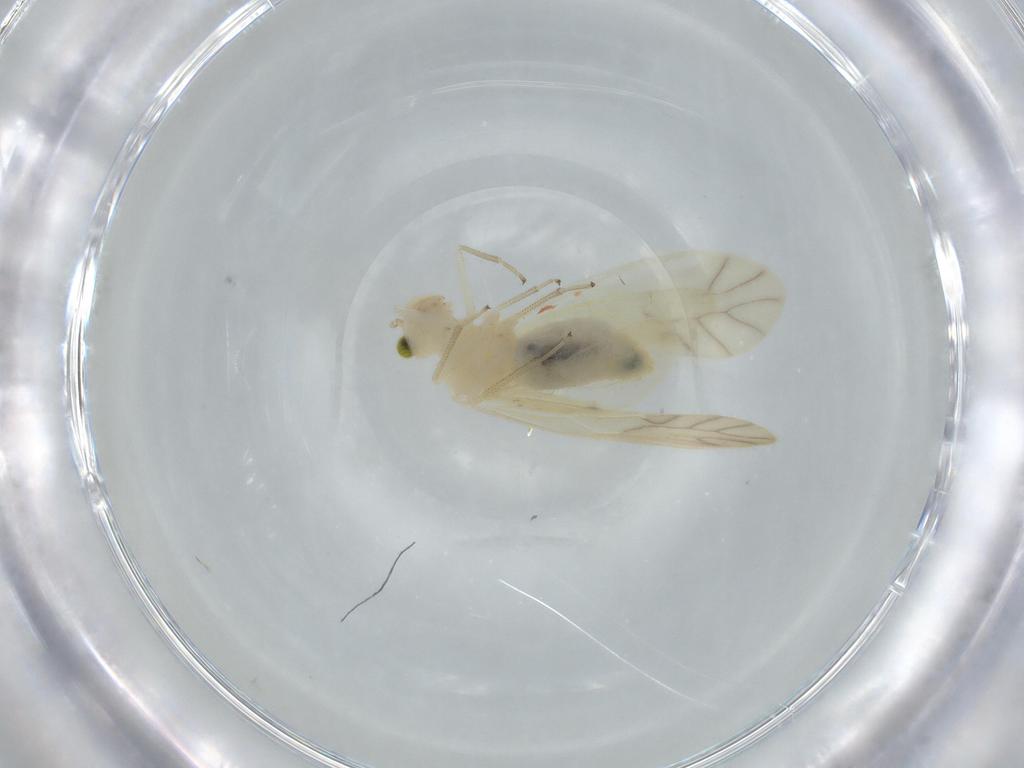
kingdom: Animalia
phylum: Arthropoda
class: Insecta
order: Psocodea
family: Caeciliusidae
